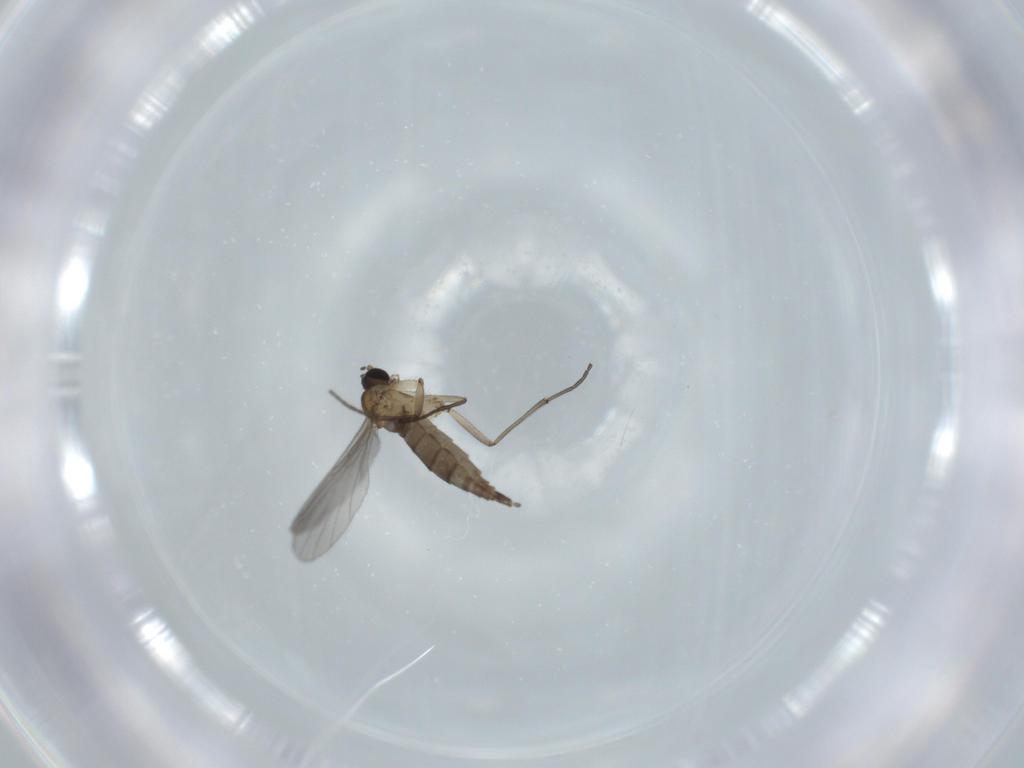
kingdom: Animalia
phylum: Arthropoda
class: Insecta
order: Diptera
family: Sciaridae
